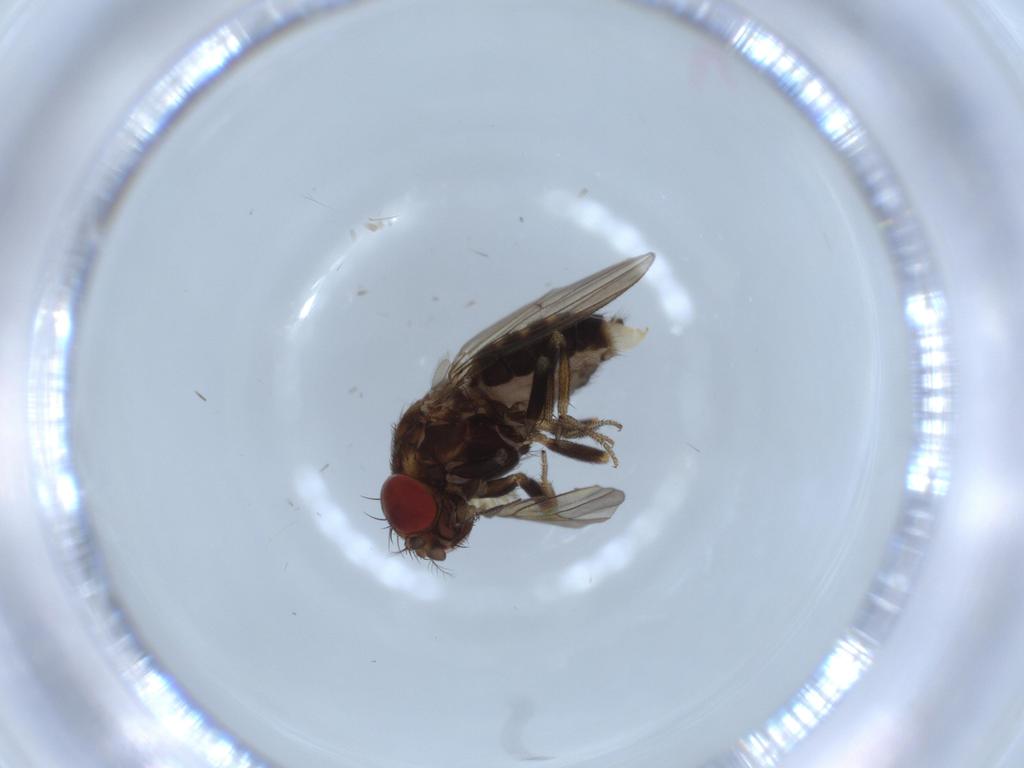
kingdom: Animalia
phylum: Arthropoda
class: Insecta
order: Diptera
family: Drosophilidae
